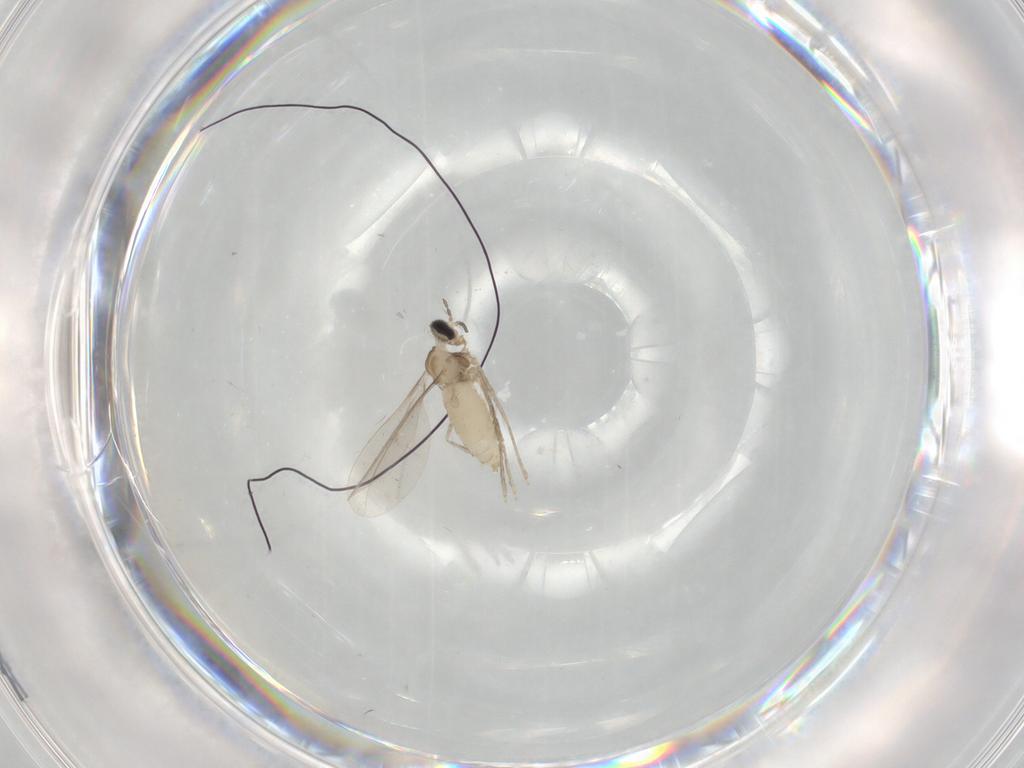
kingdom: Animalia
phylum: Arthropoda
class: Insecta
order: Diptera
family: Cecidomyiidae
